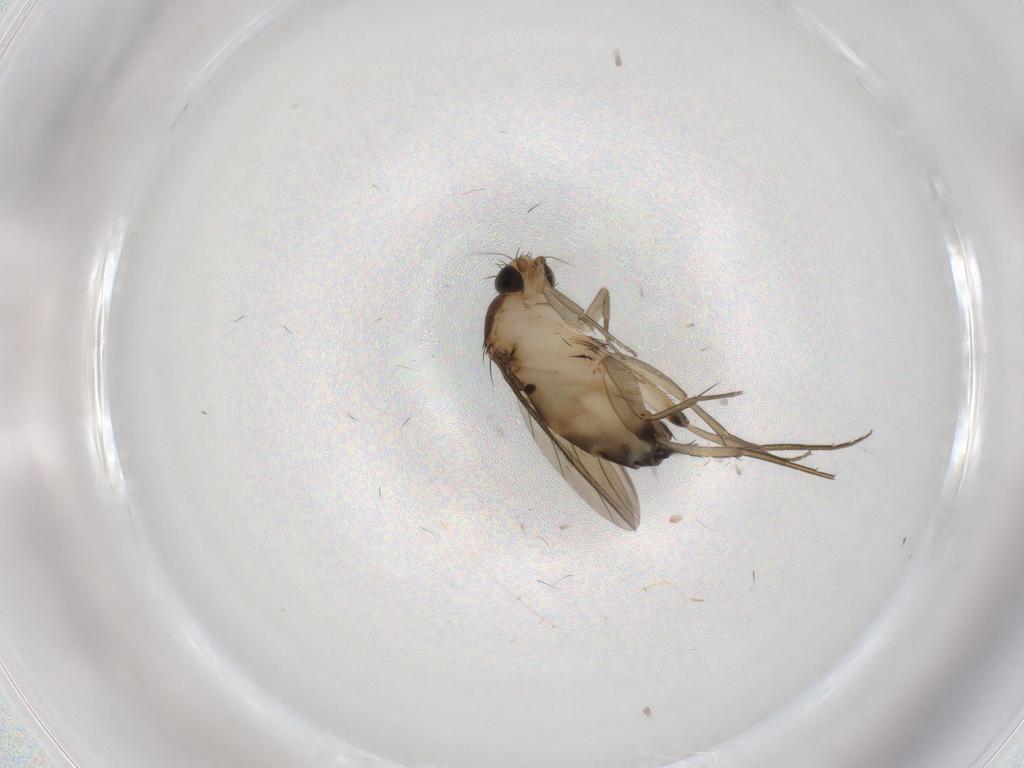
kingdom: Animalia
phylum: Arthropoda
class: Insecta
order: Diptera
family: Phoridae
